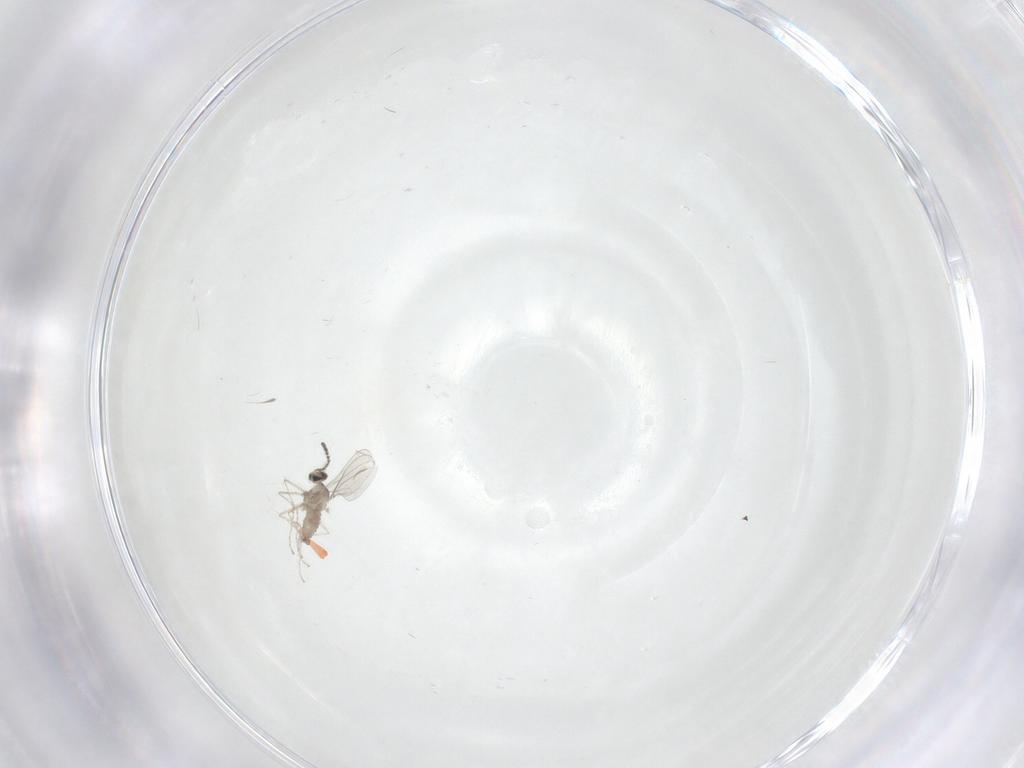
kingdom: Animalia
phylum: Arthropoda
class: Insecta
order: Diptera
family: Cecidomyiidae
